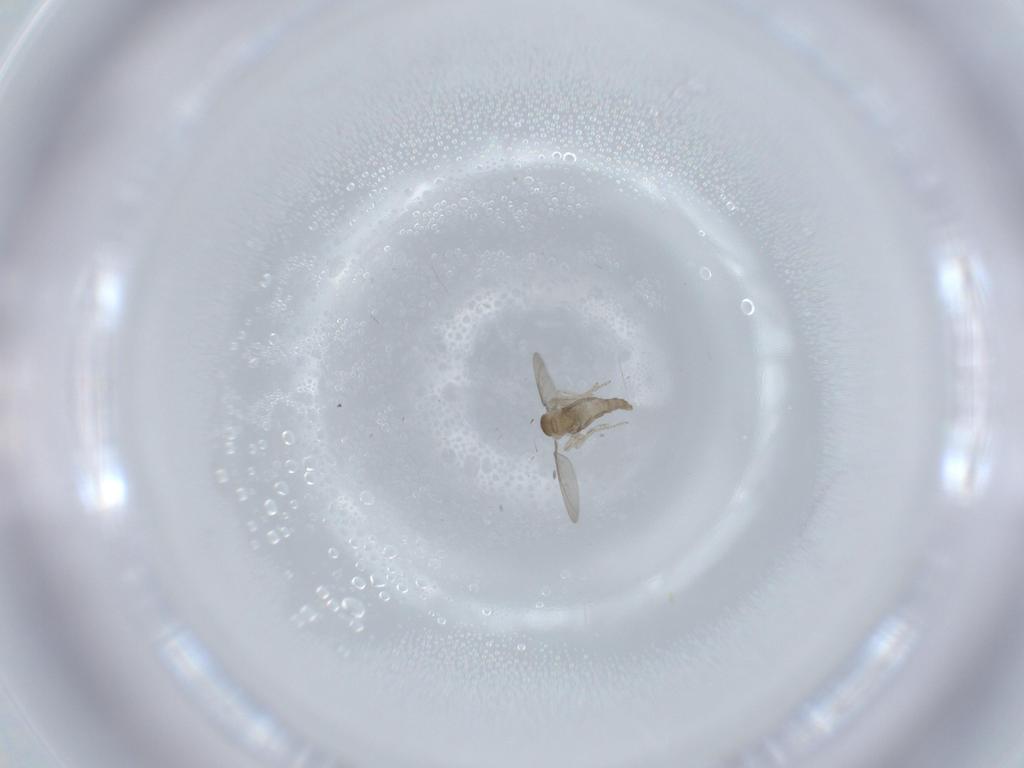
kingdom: Animalia
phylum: Arthropoda
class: Insecta
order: Diptera
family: Cecidomyiidae
